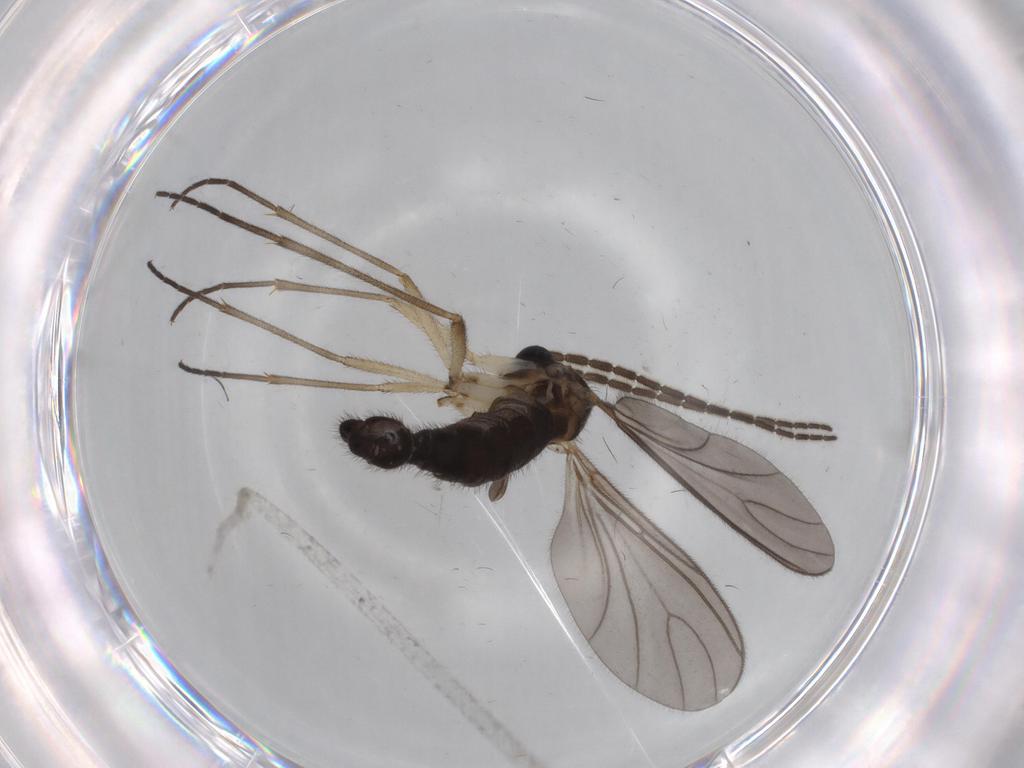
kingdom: Animalia
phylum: Arthropoda
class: Insecta
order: Diptera
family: Sciaridae
